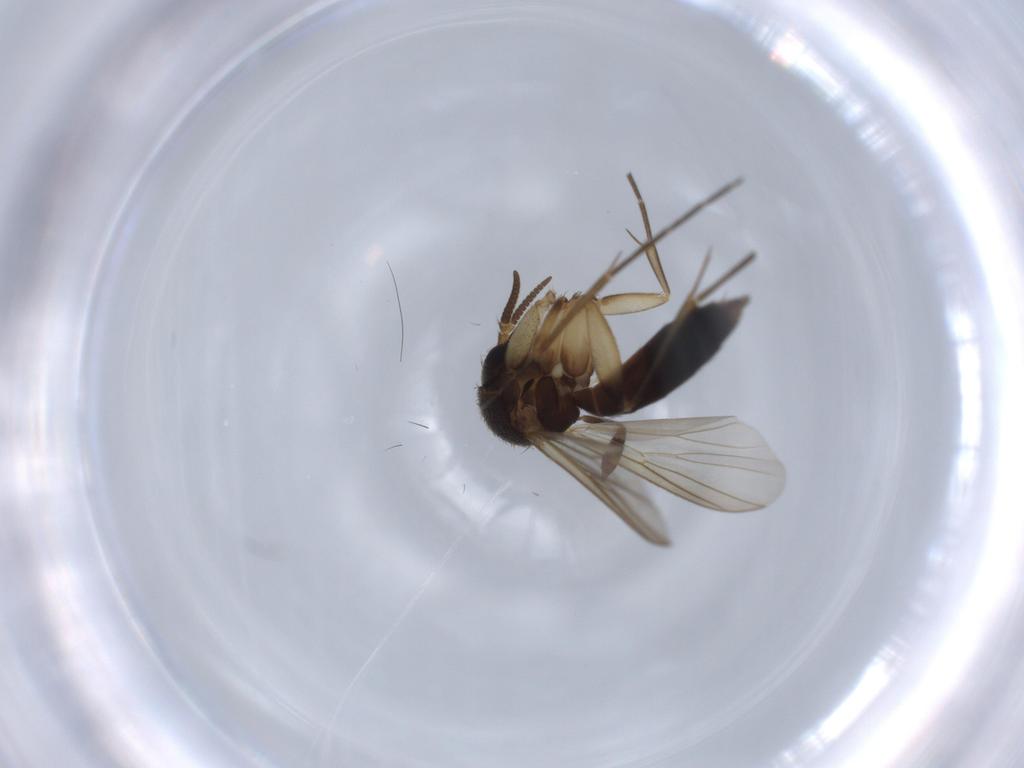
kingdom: Animalia
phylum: Arthropoda
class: Insecta
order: Diptera
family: Mycetophilidae
